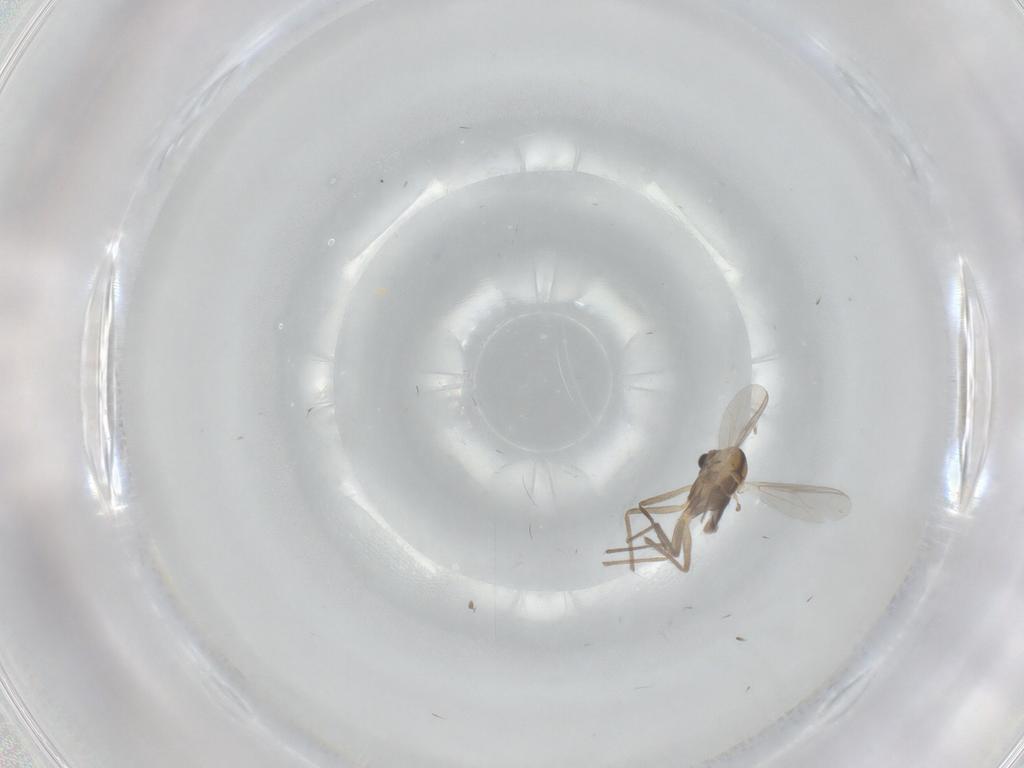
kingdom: Animalia
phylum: Arthropoda
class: Insecta
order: Diptera
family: Chironomidae
